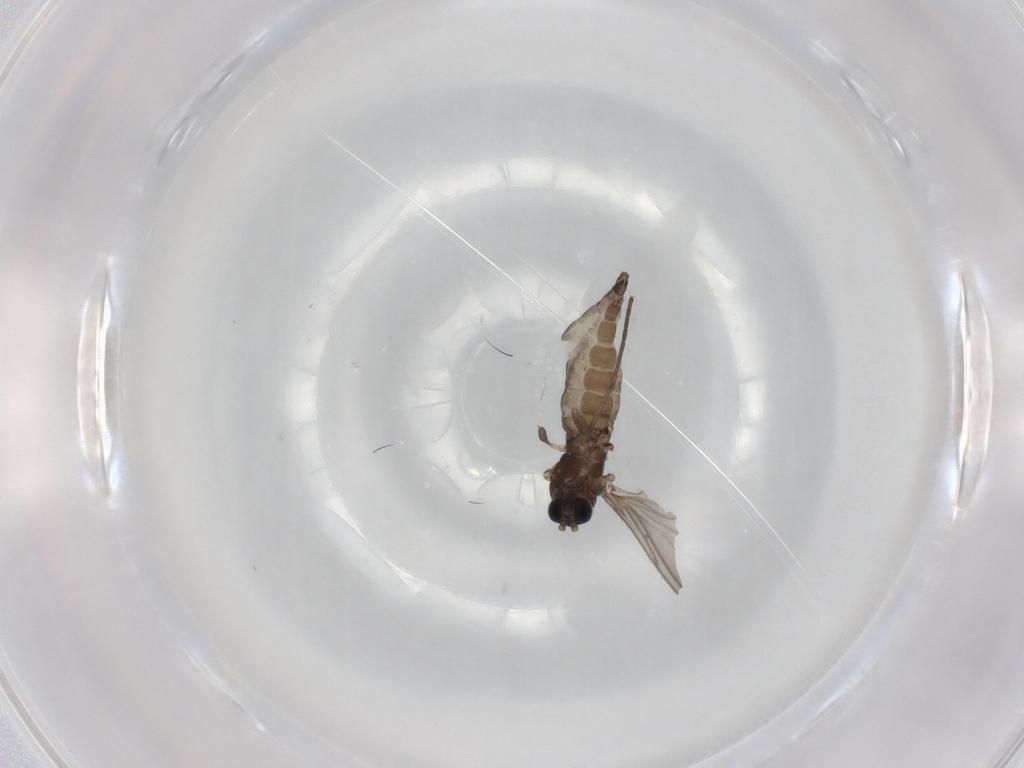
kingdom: Animalia
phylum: Arthropoda
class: Insecta
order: Diptera
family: Sciaridae
